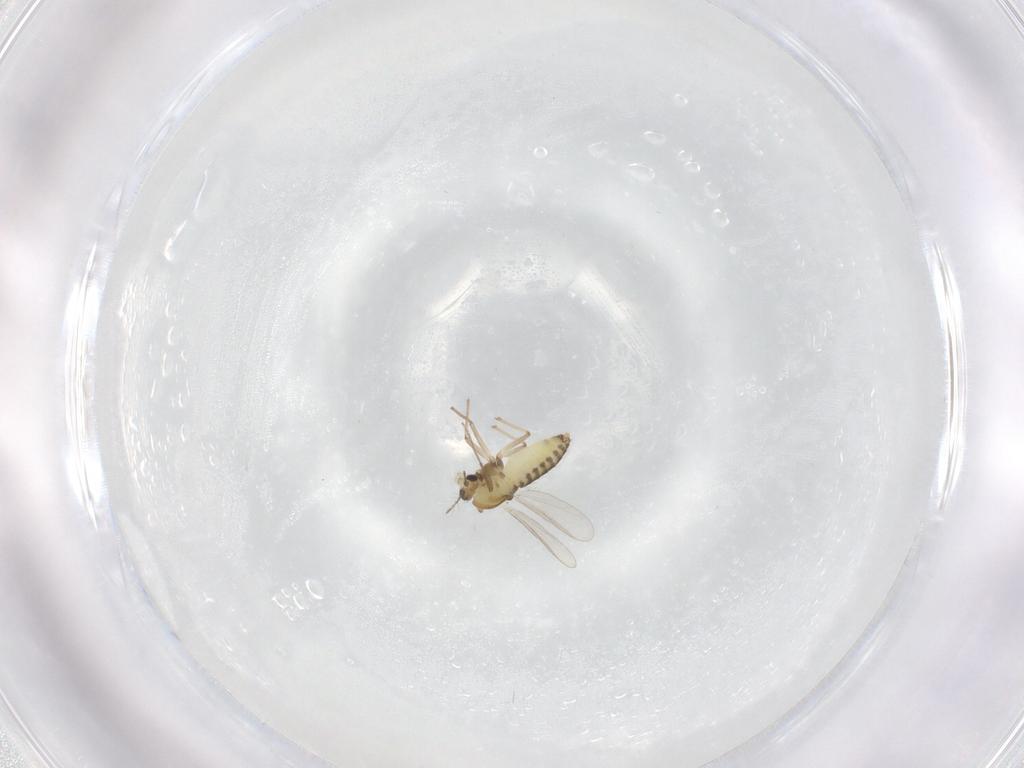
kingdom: Animalia
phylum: Arthropoda
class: Insecta
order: Diptera
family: Chironomidae
